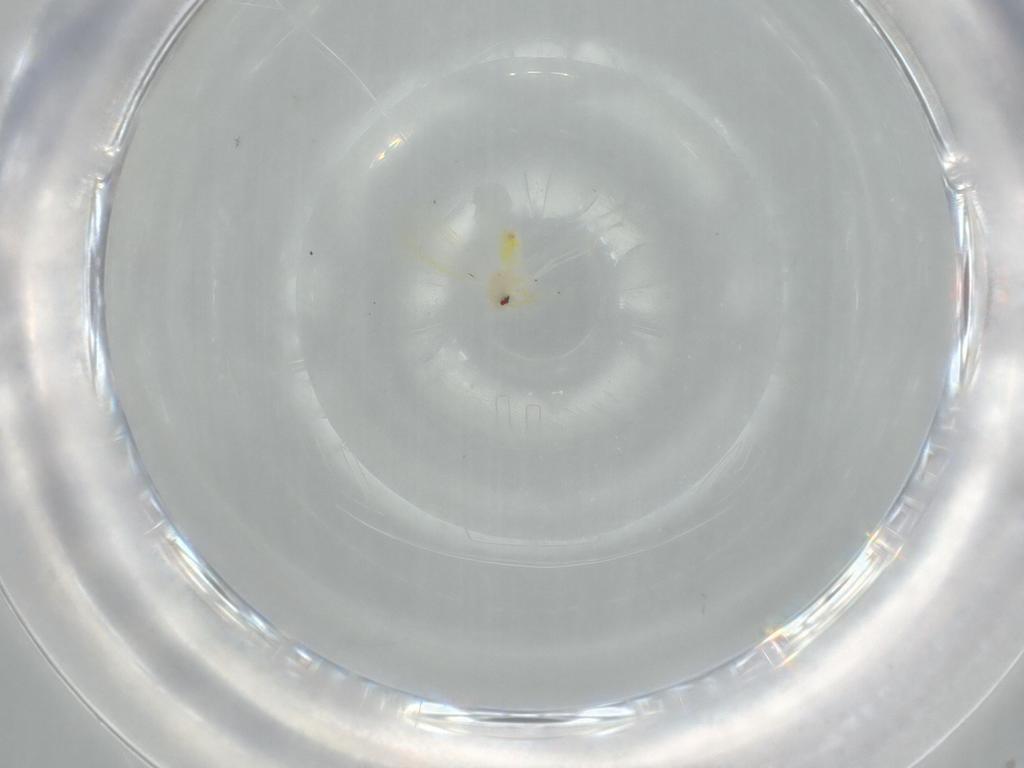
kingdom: Animalia
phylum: Arthropoda
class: Insecta
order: Hemiptera
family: Aleyrodidae
